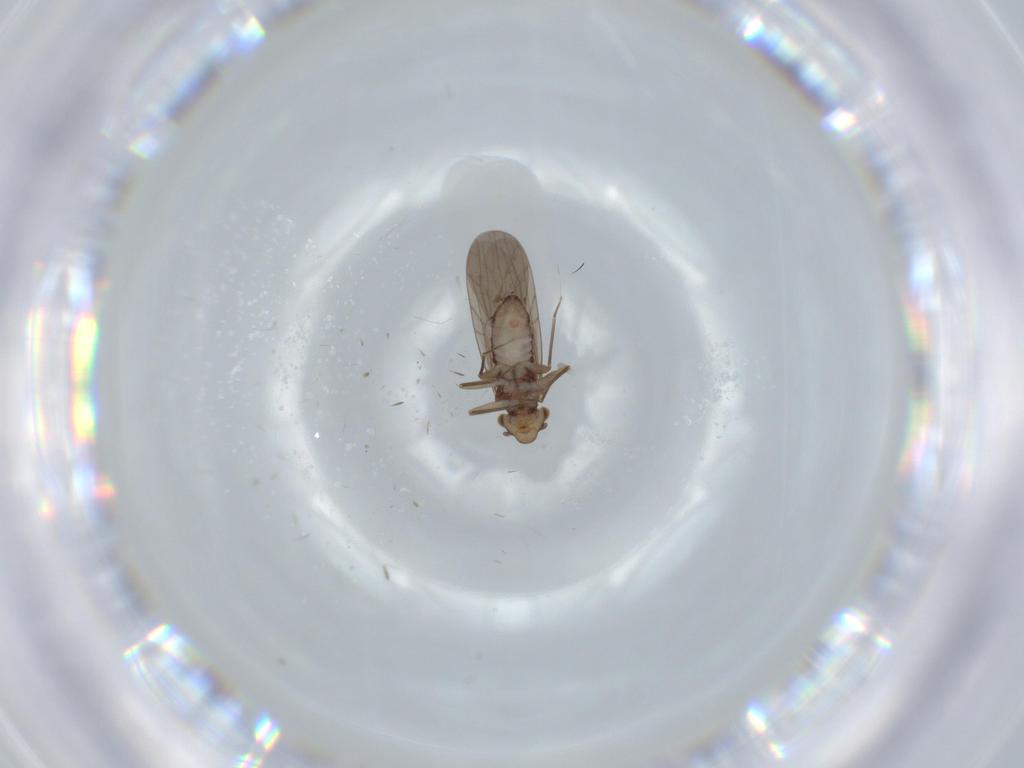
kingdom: Animalia
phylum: Arthropoda
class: Insecta
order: Psocodea
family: Lepidopsocidae
